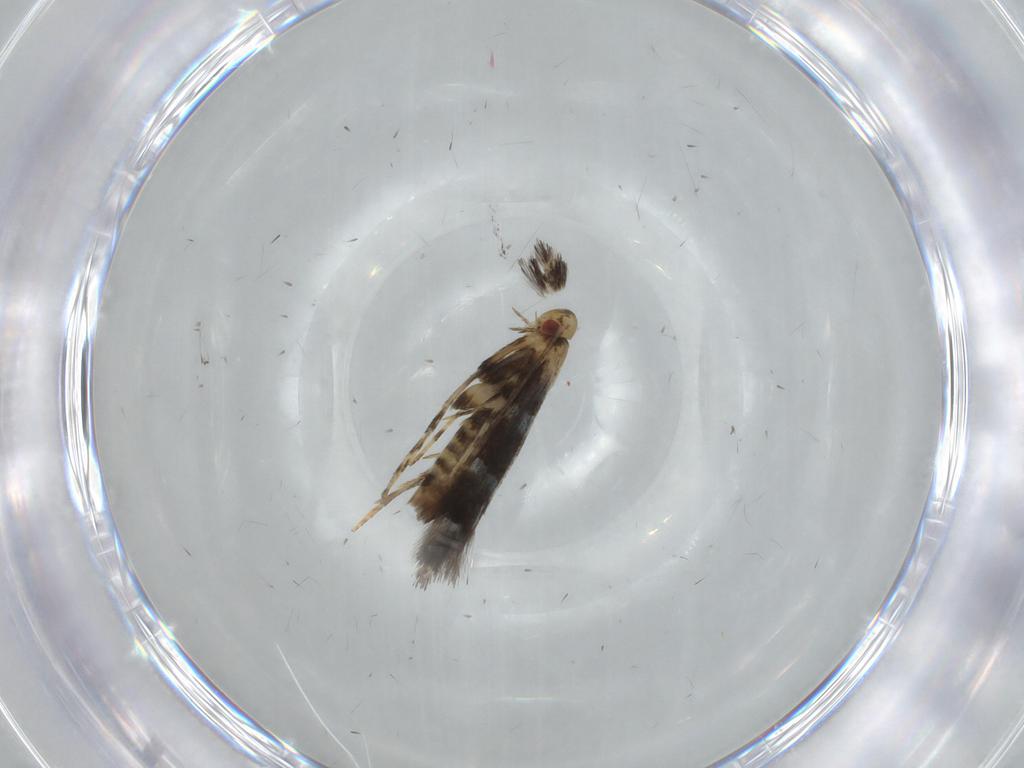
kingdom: Animalia
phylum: Arthropoda
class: Insecta
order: Lepidoptera
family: Gracillariidae
